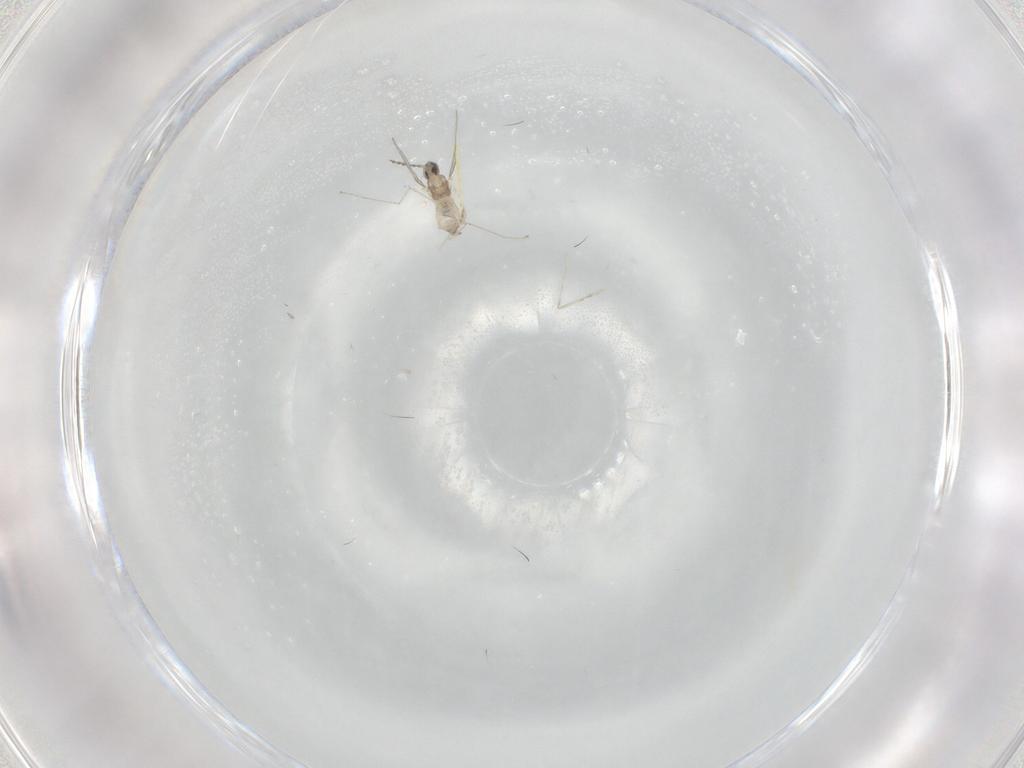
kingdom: Animalia
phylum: Arthropoda
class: Insecta
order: Diptera
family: Cecidomyiidae
